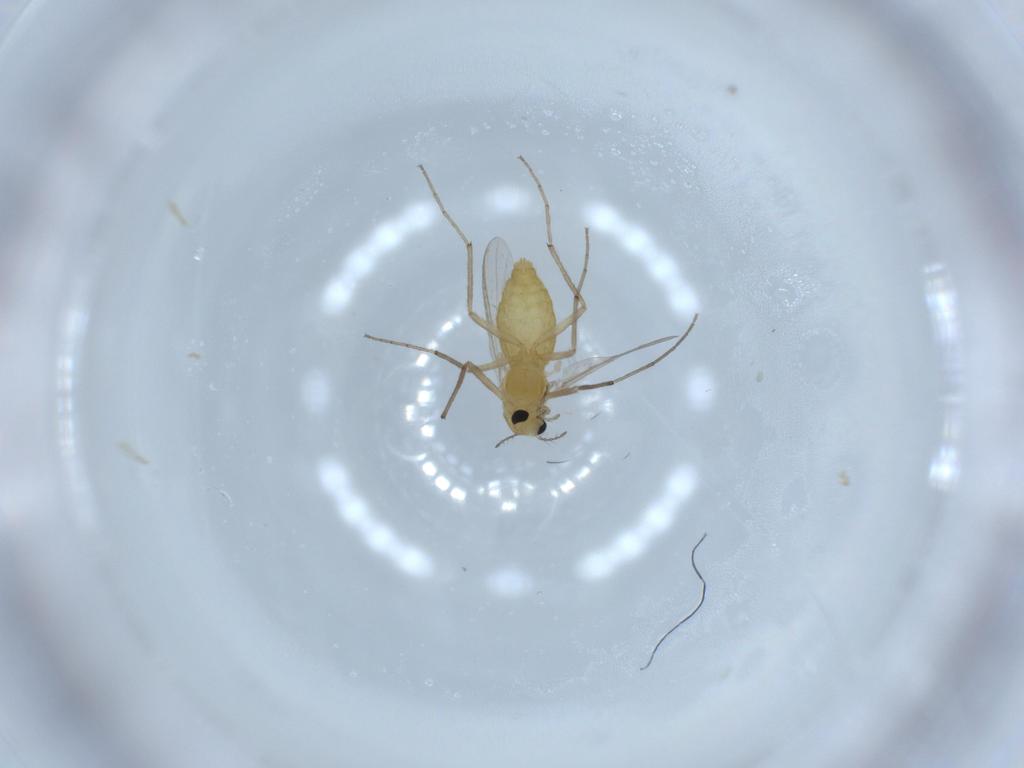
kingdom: Animalia
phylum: Arthropoda
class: Insecta
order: Diptera
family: Chironomidae
